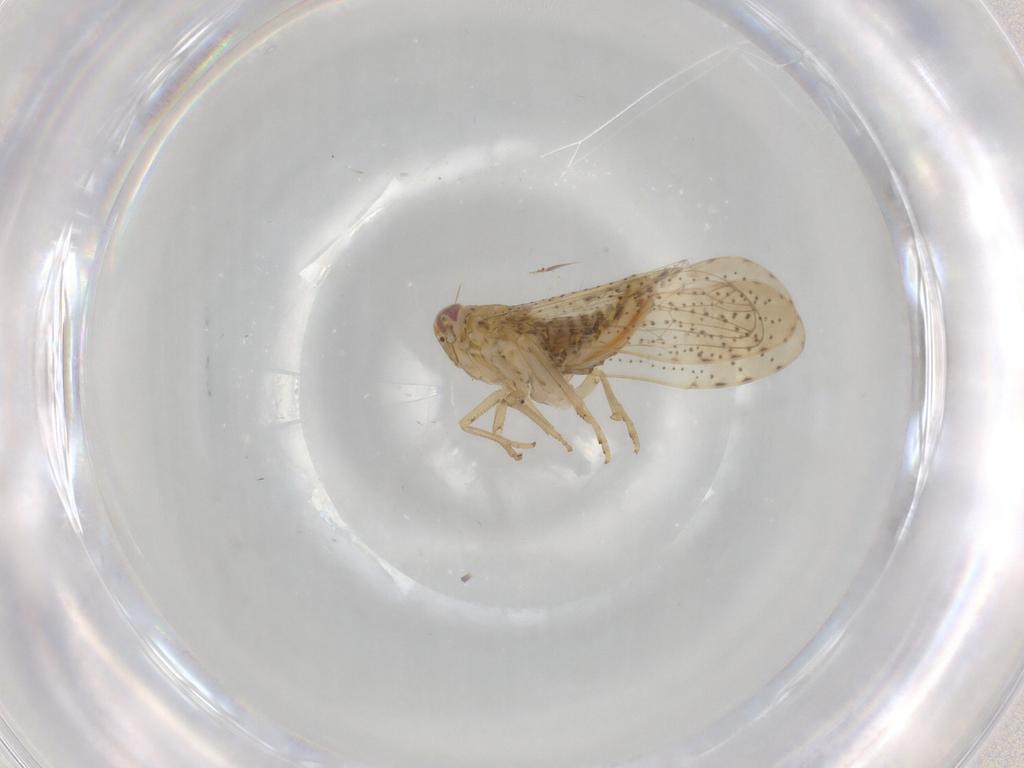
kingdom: Animalia
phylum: Arthropoda
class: Insecta
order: Hemiptera
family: Delphacidae
